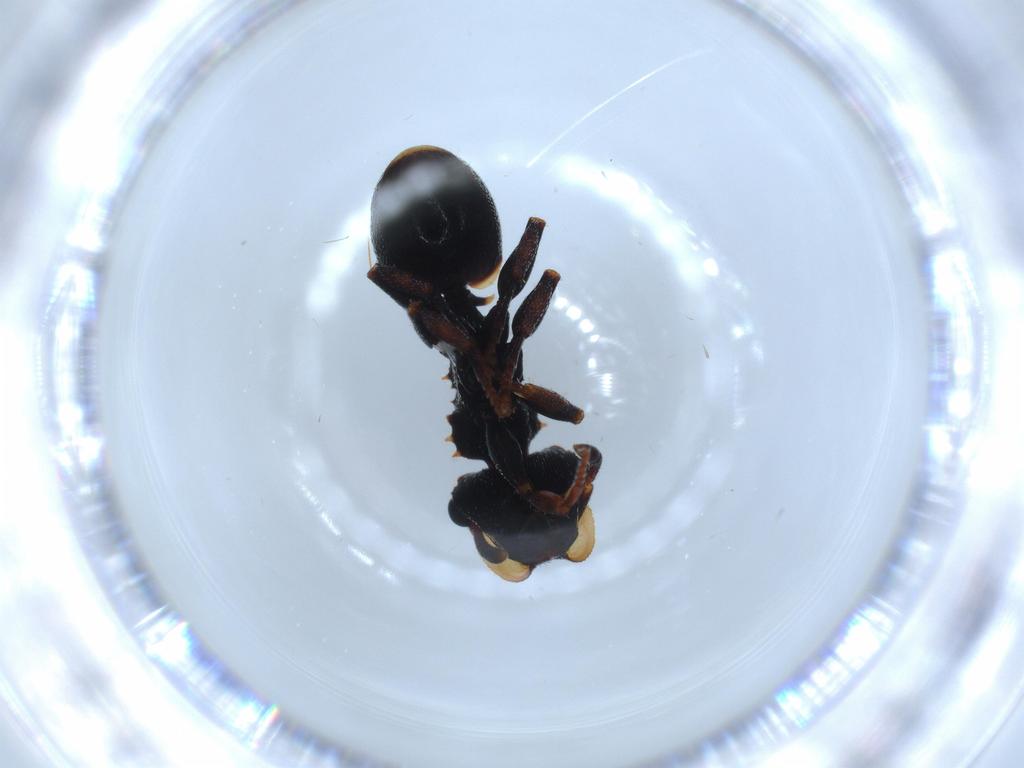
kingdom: Animalia
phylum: Arthropoda
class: Insecta
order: Hymenoptera
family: Formicidae
